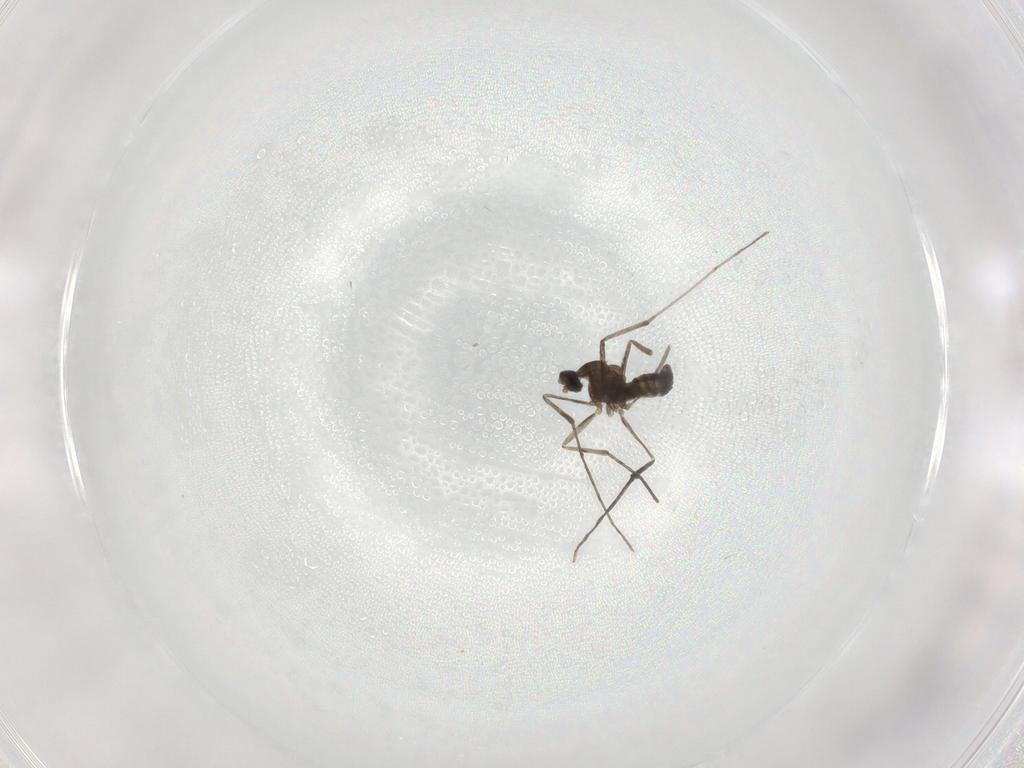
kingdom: Animalia
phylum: Arthropoda
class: Insecta
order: Diptera
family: Cecidomyiidae
